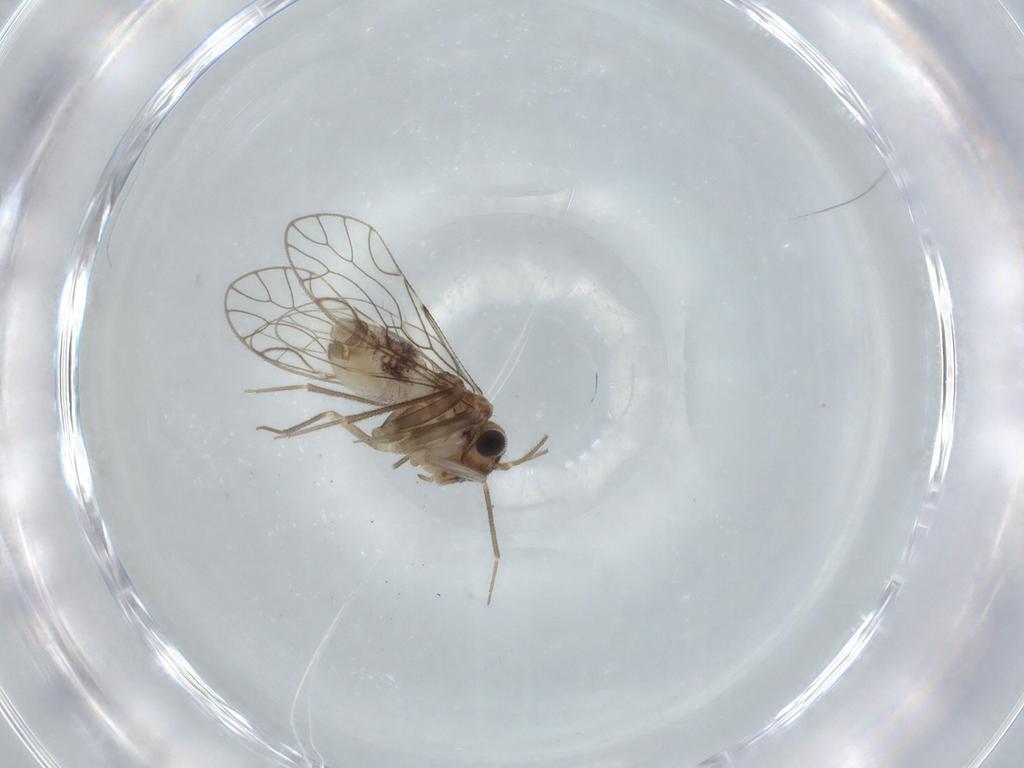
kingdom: Animalia
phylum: Arthropoda
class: Insecta
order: Psocodea
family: Epipsocidae
